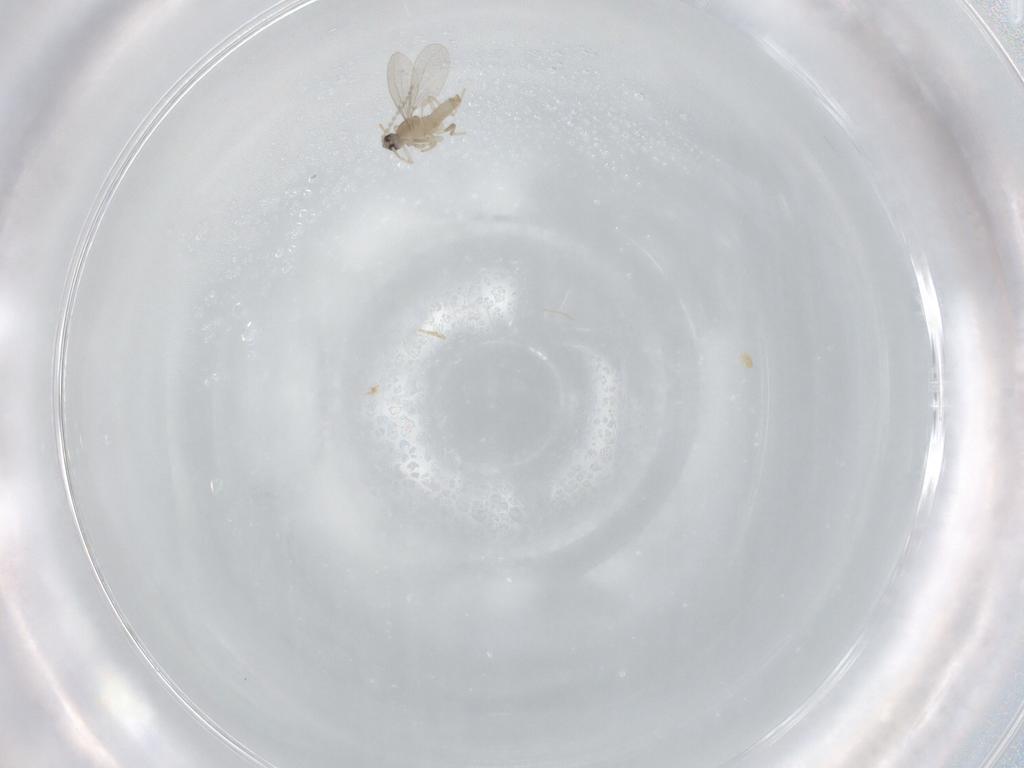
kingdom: Animalia
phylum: Arthropoda
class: Insecta
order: Diptera
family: Cecidomyiidae
